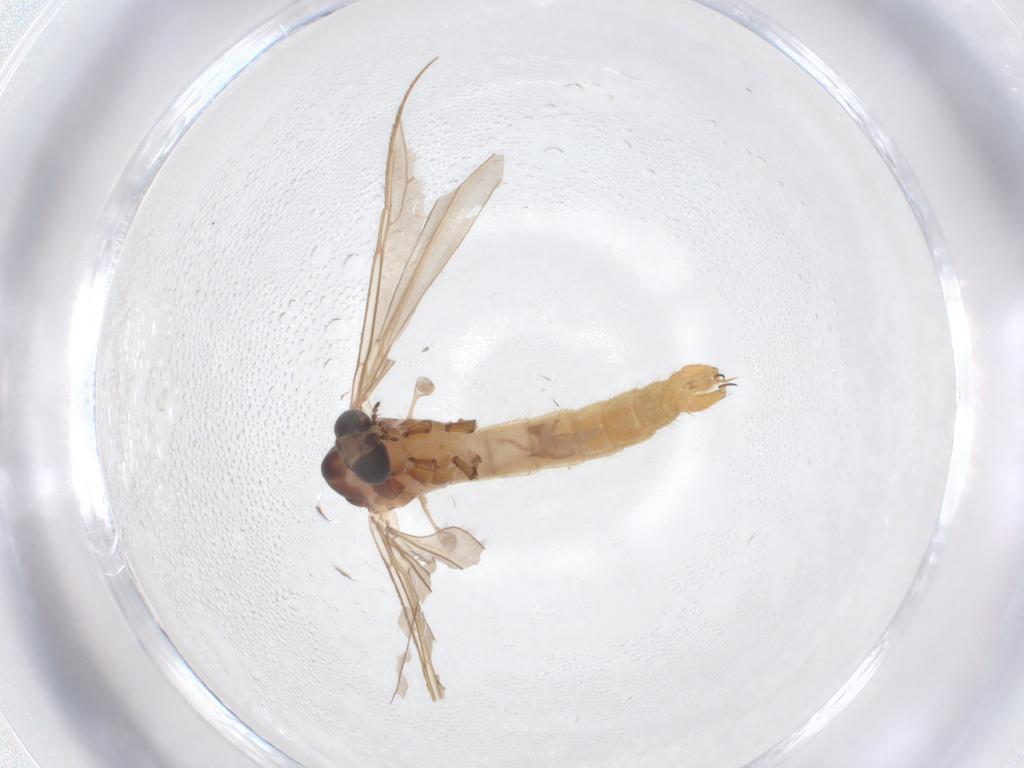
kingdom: Animalia
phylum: Arthropoda
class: Insecta
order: Diptera
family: Limoniidae
